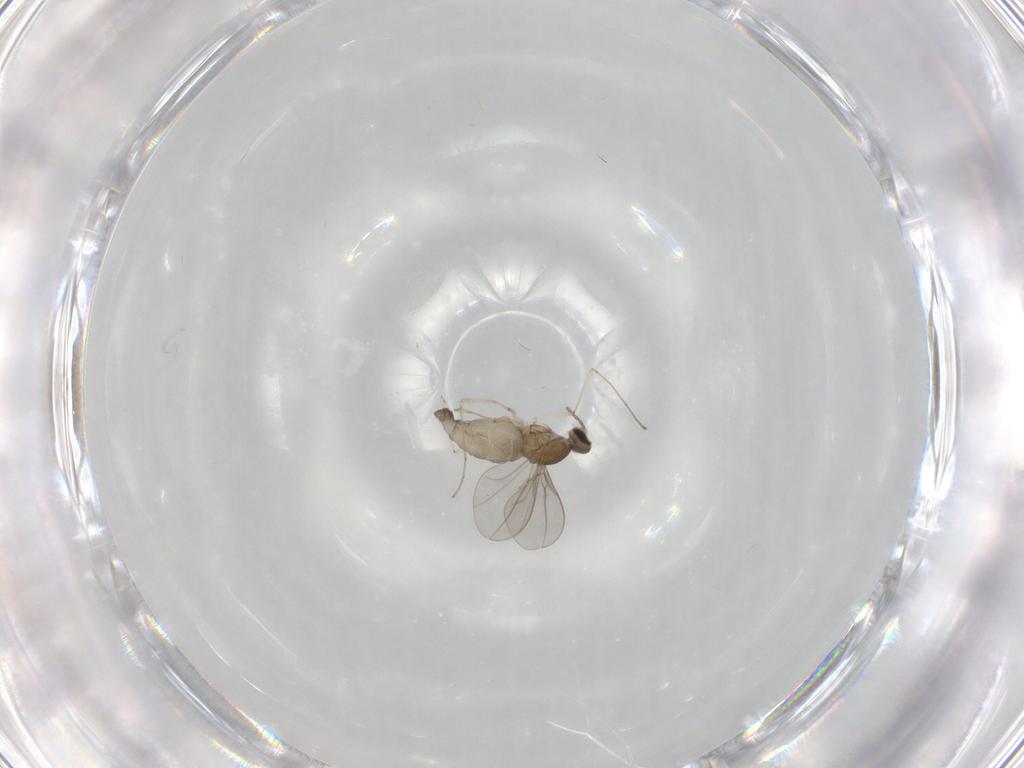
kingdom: Animalia
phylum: Arthropoda
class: Insecta
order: Diptera
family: Cecidomyiidae
